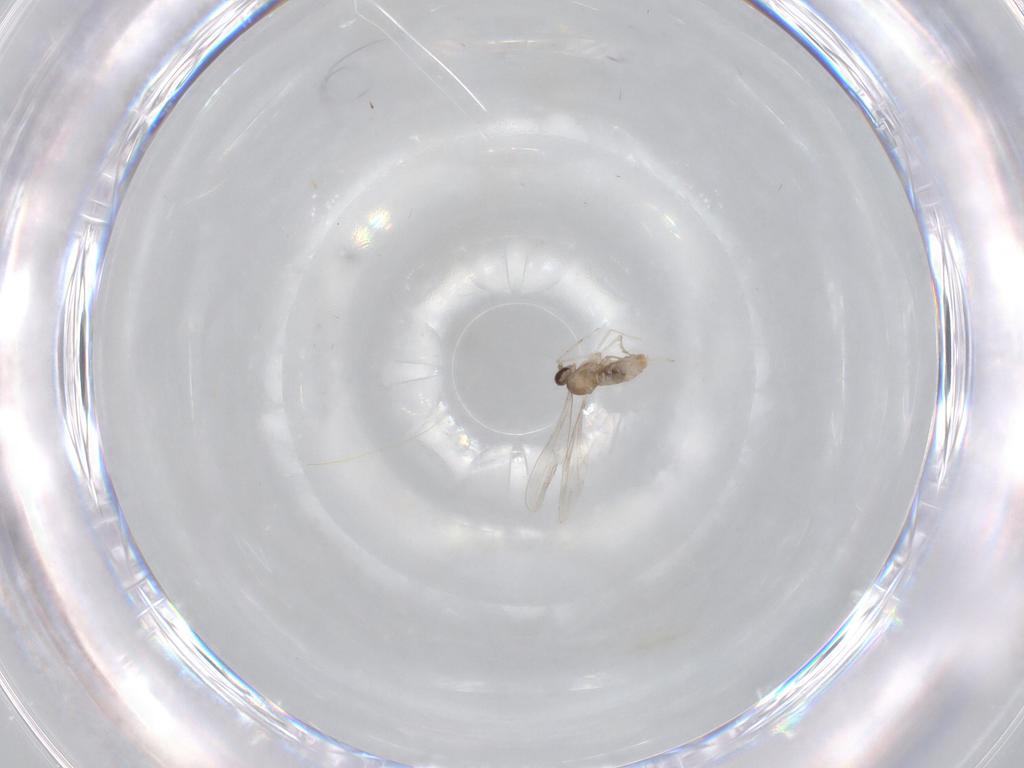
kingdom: Animalia
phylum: Arthropoda
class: Insecta
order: Diptera
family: Cecidomyiidae
